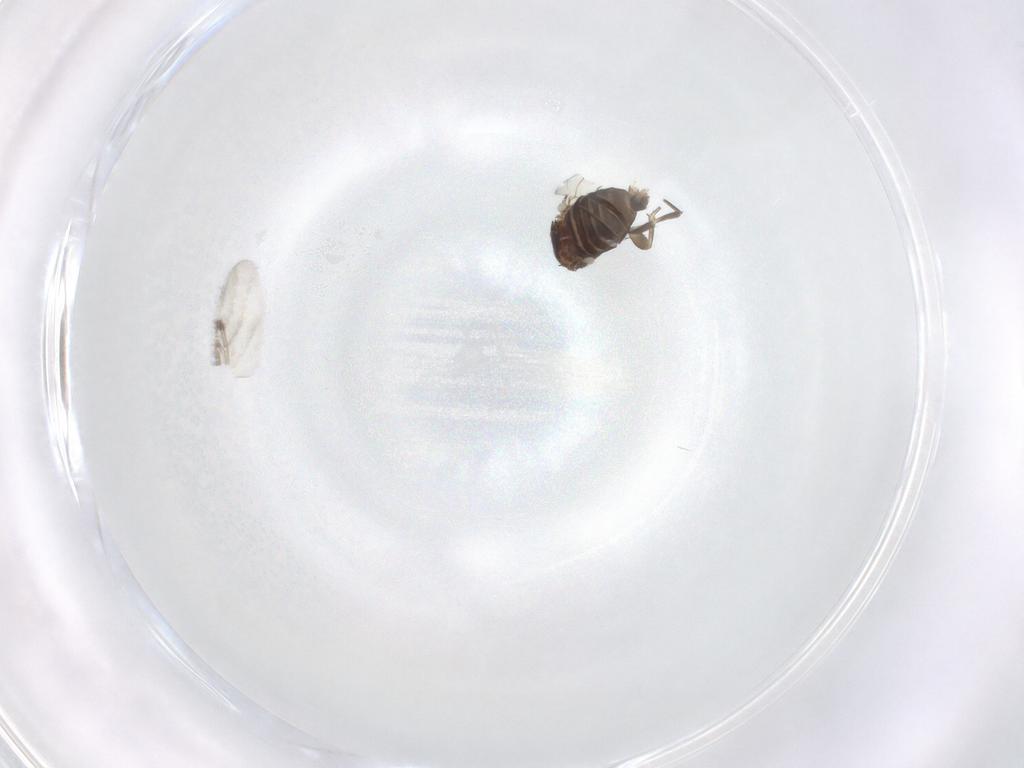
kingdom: Animalia
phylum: Arthropoda
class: Insecta
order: Diptera
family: Phoridae
